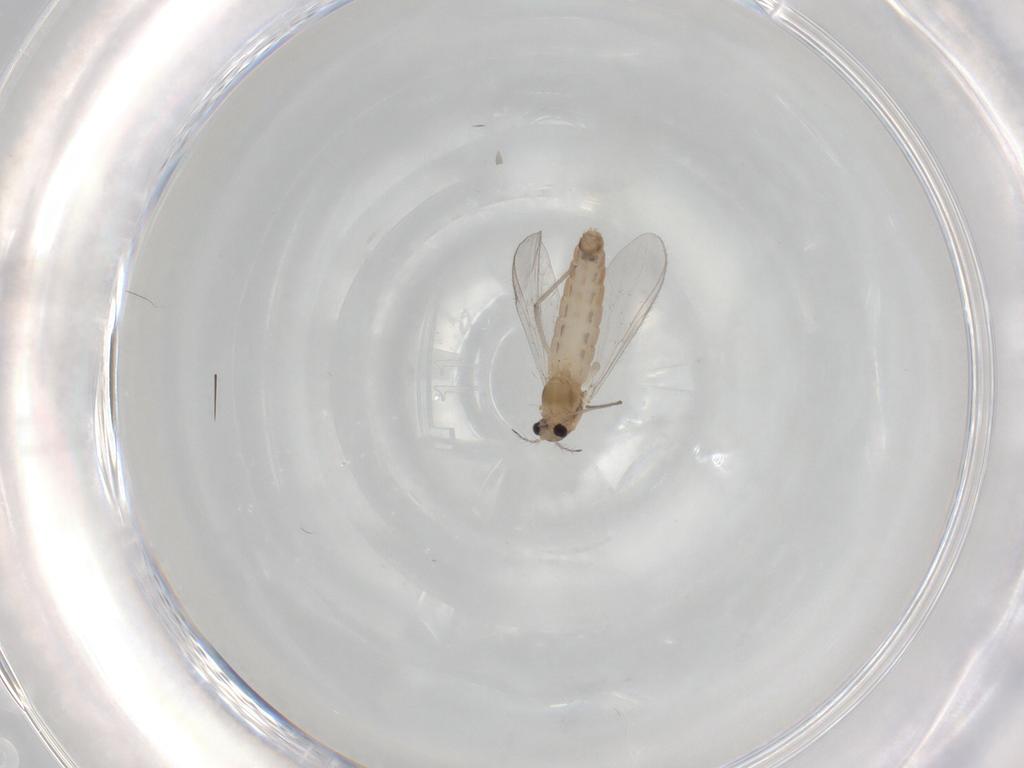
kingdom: Animalia
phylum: Arthropoda
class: Insecta
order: Diptera
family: Chironomidae
